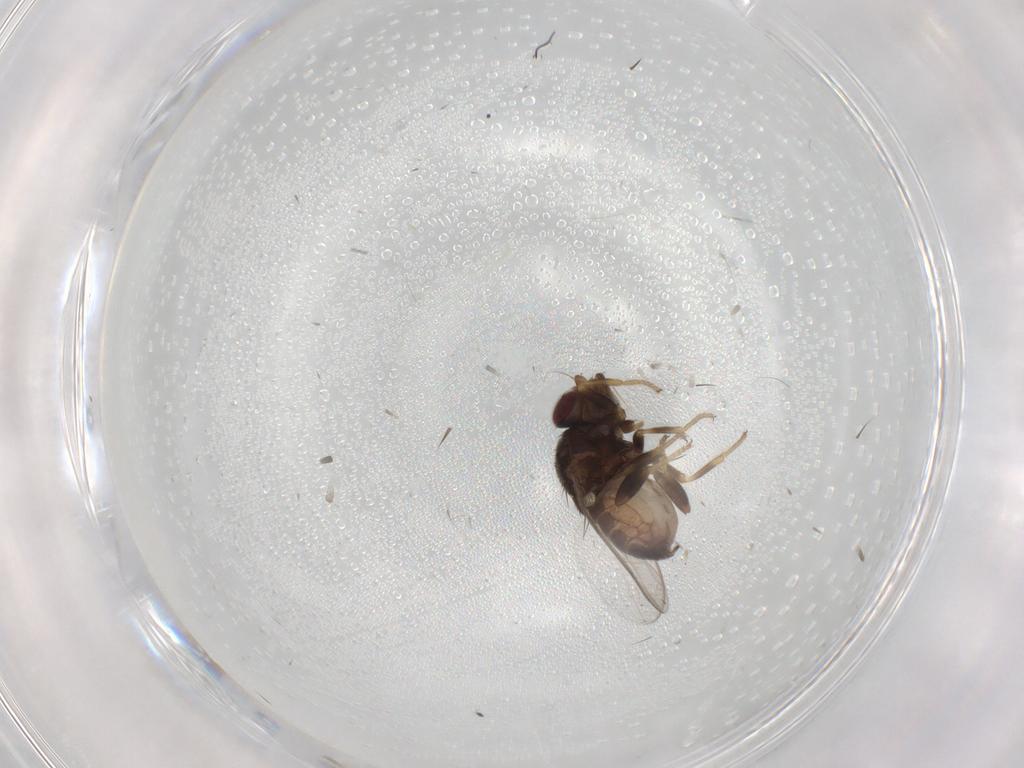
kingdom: Animalia
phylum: Arthropoda
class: Insecta
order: Diptera
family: Chloropidae
